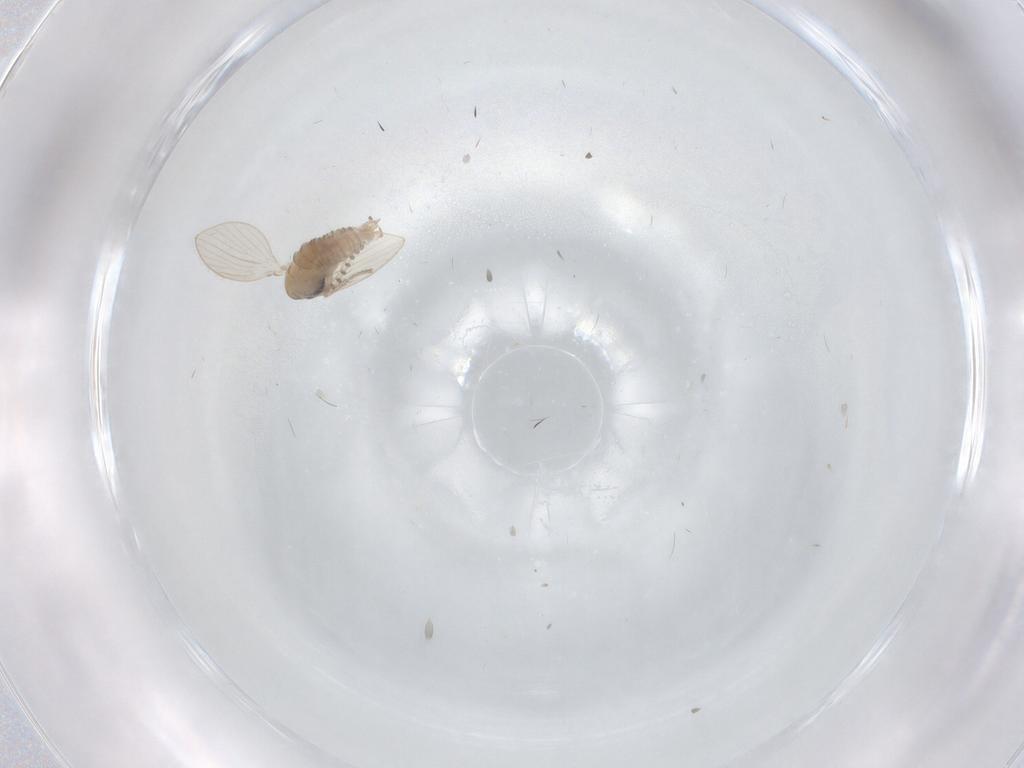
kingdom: Animalia
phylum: Arthropoda
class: Insecta
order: Diptera
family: Psychodidae
